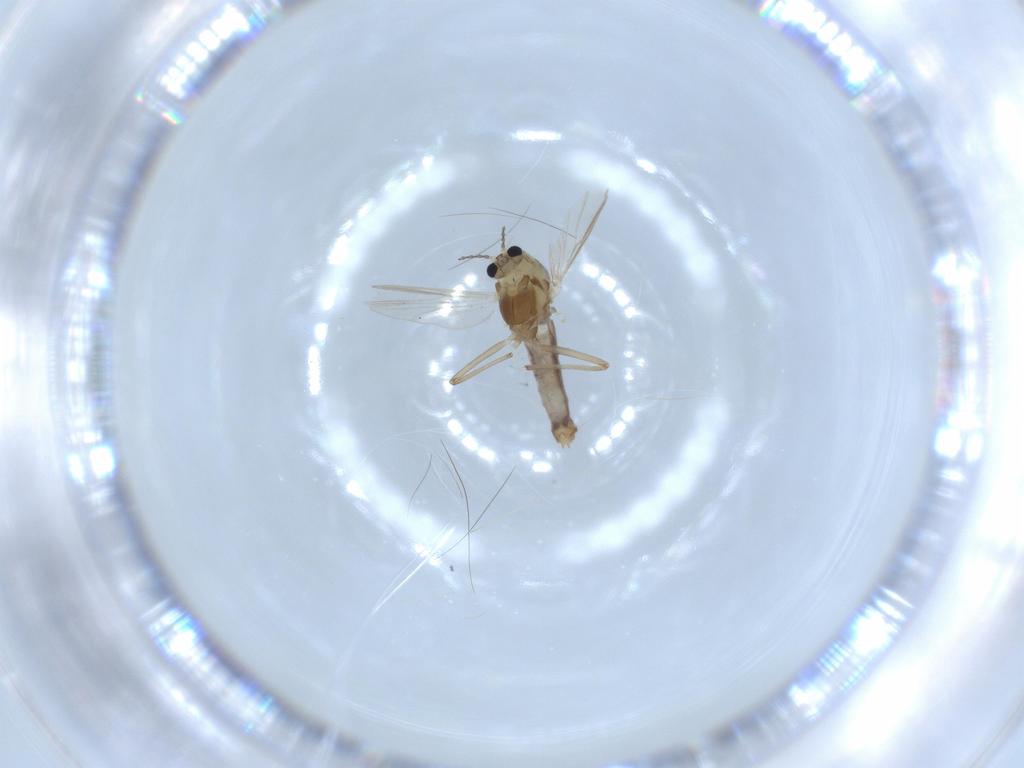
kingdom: Animalia
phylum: Arthropoda
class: Insecta
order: Diptera
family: Chironomidae
